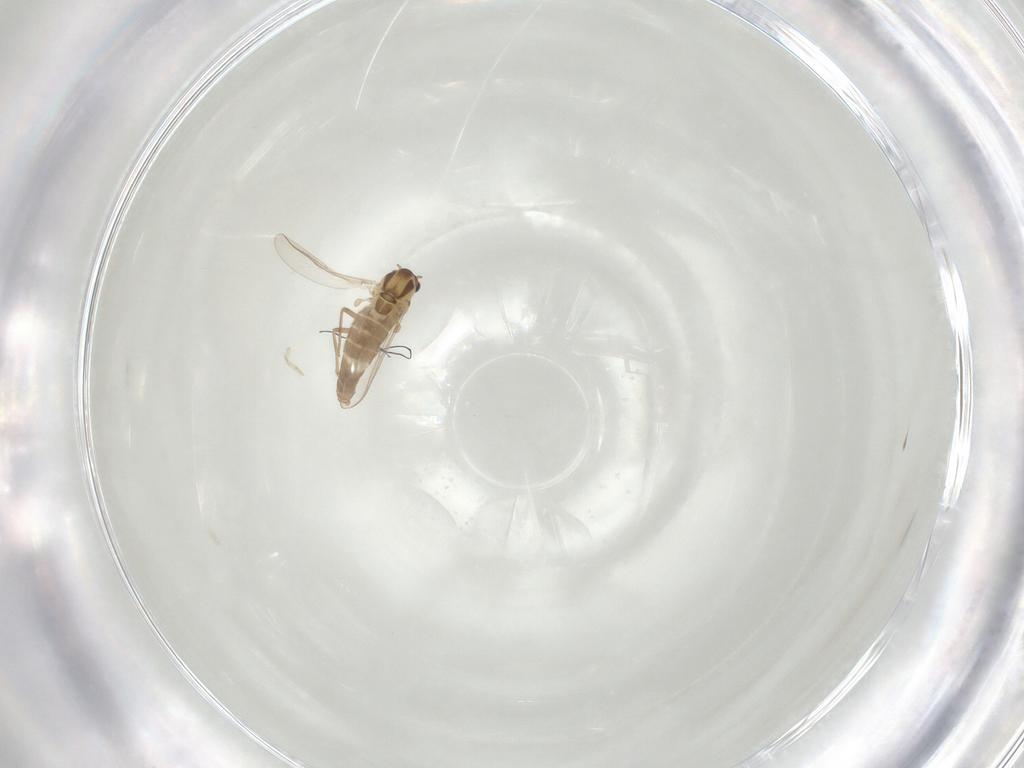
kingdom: Animalia
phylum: Arthropoda
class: Insecta
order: Diptera
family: Chironomidae
